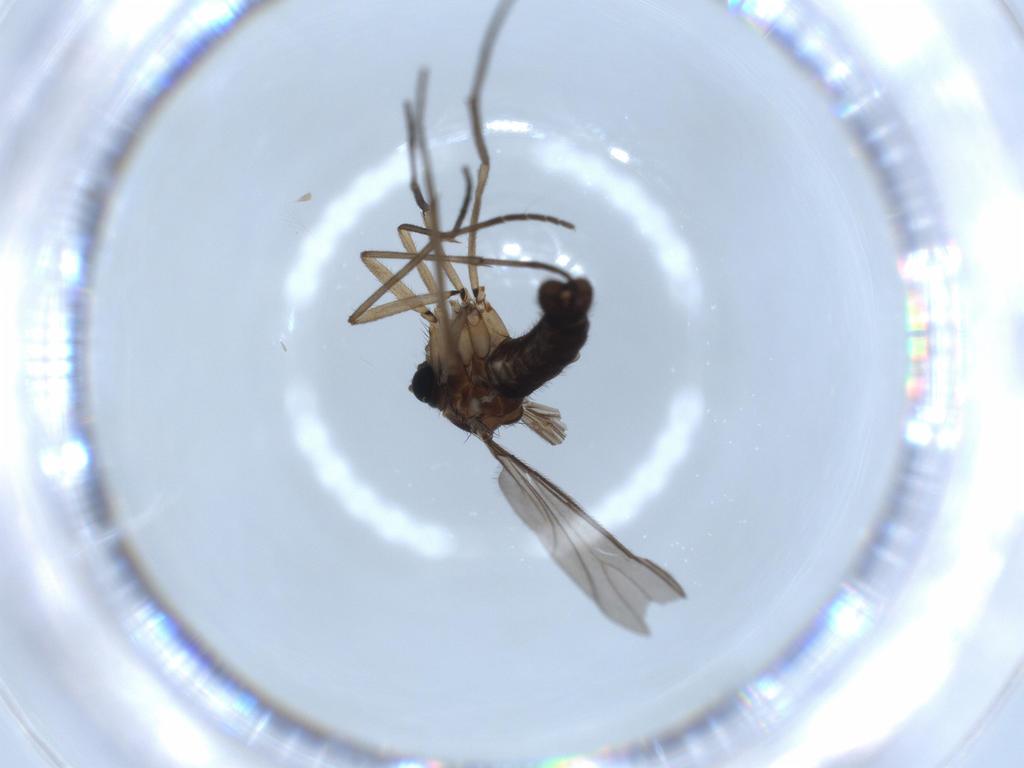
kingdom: Animalia
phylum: Arthropoda
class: Insecta
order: Diptera
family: Sciaridae
